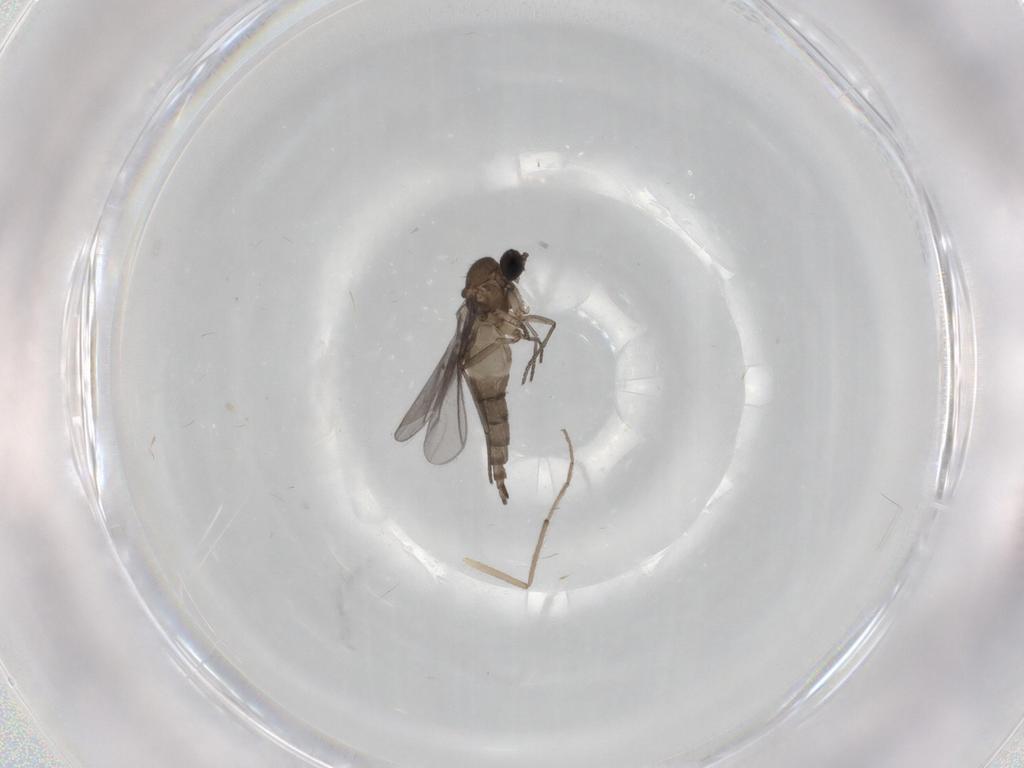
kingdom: Animalia
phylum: Arthropoda
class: Insecta
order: Diptera
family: Chironomidae
